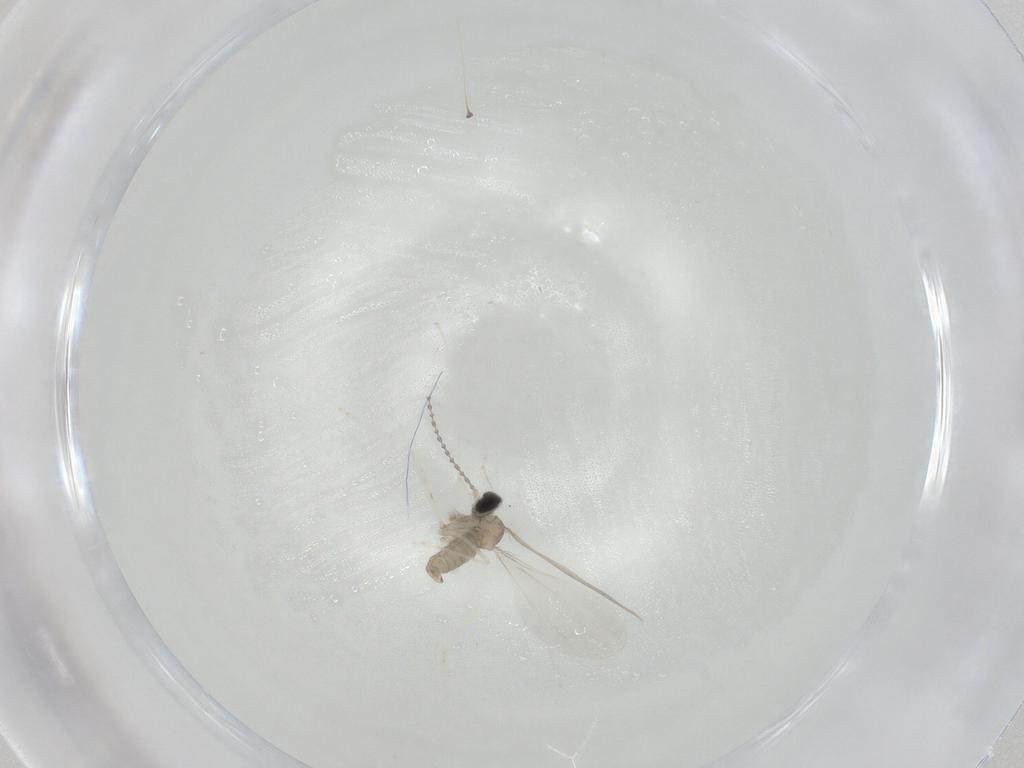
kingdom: Animalia
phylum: Arthropoda
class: Insecta
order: Diptera
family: Cecidomyiidae
